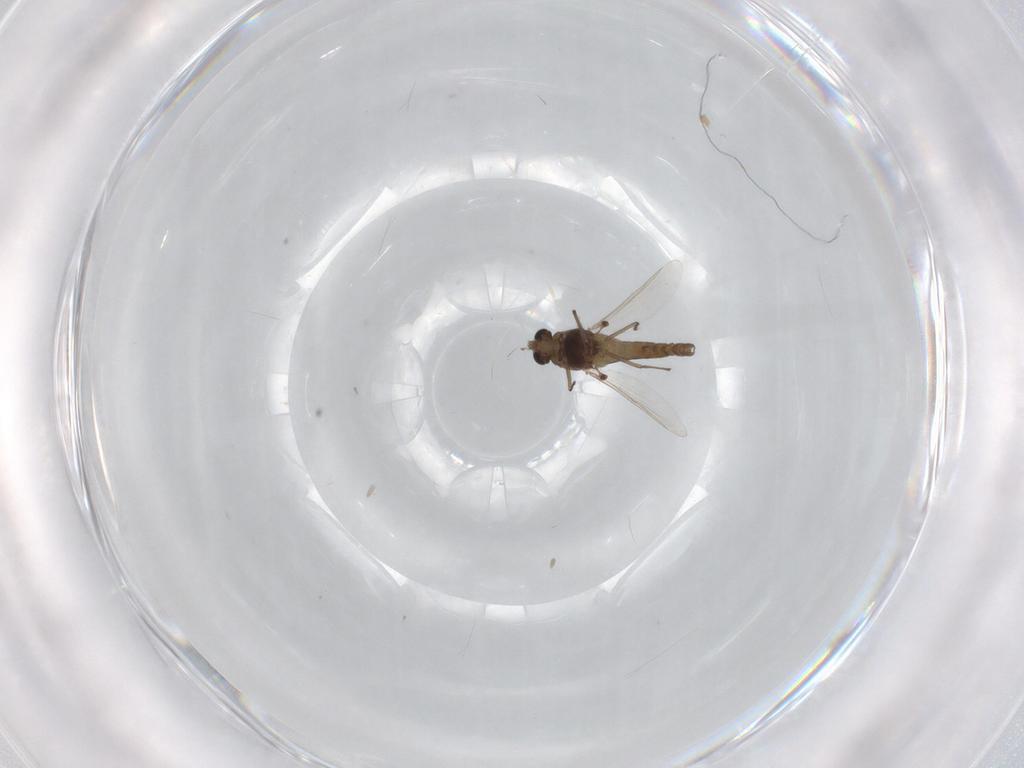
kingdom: Animalia
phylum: Arthropoda
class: Insecta
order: Diptera
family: Chironomidae
